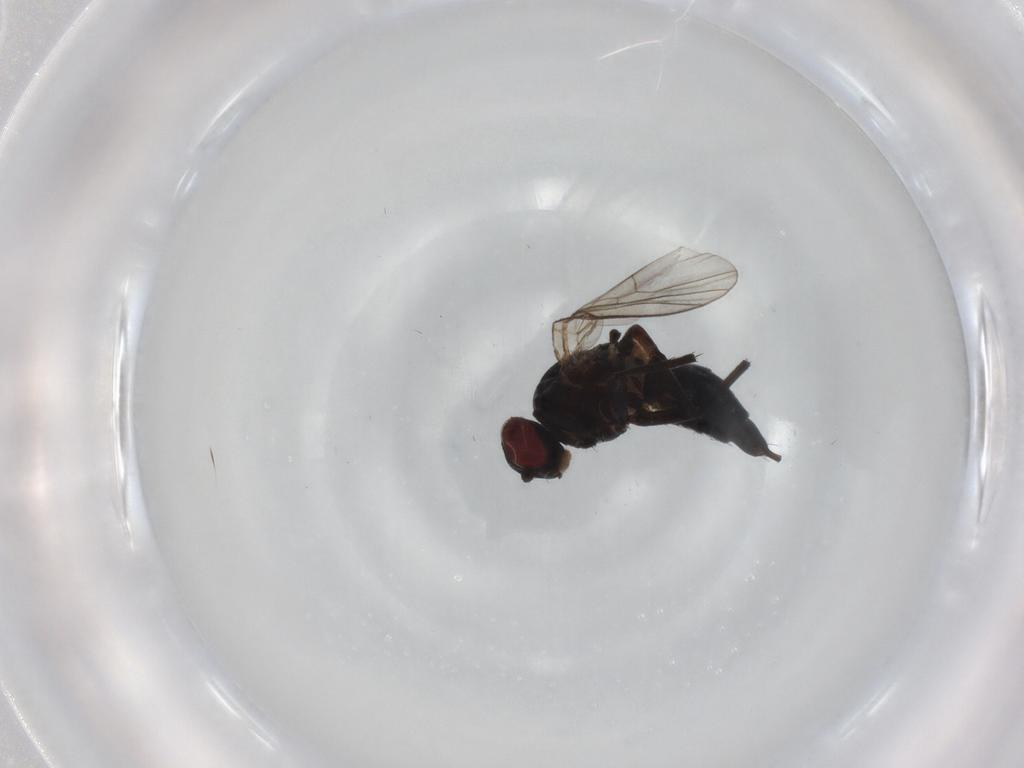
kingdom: Animalia
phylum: Arthropoda
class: Insecta
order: Diptera
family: Agromyzidae
